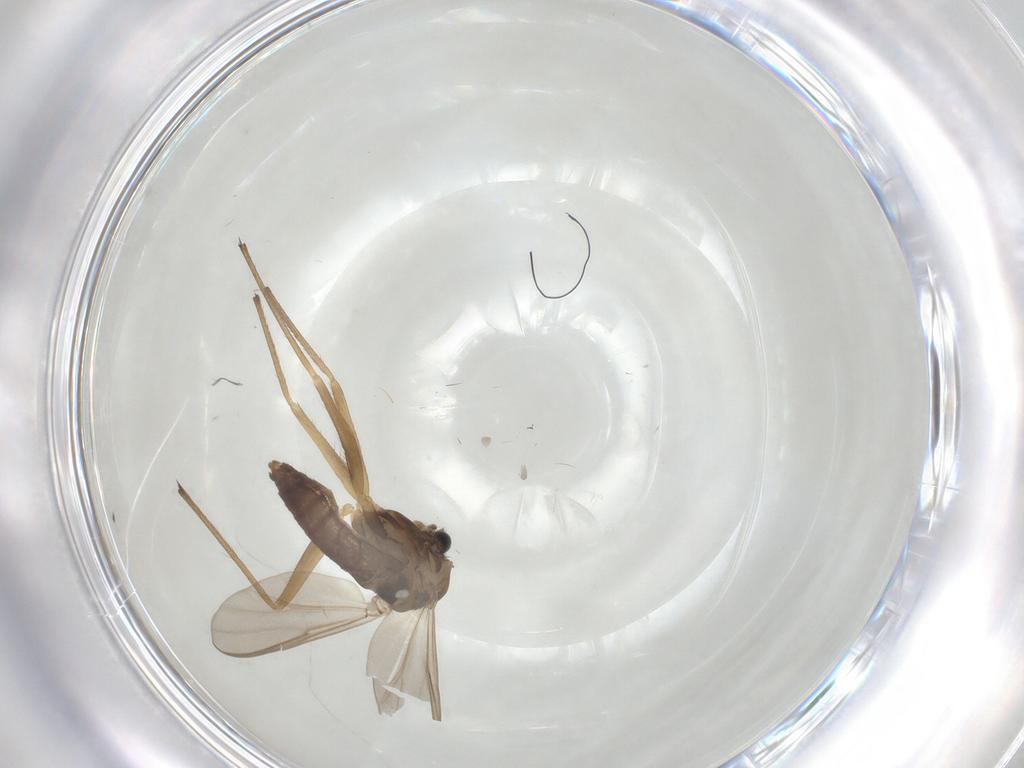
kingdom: Animalia
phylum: Arthropoda
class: Insecta
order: Diptera
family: Chironomidae
